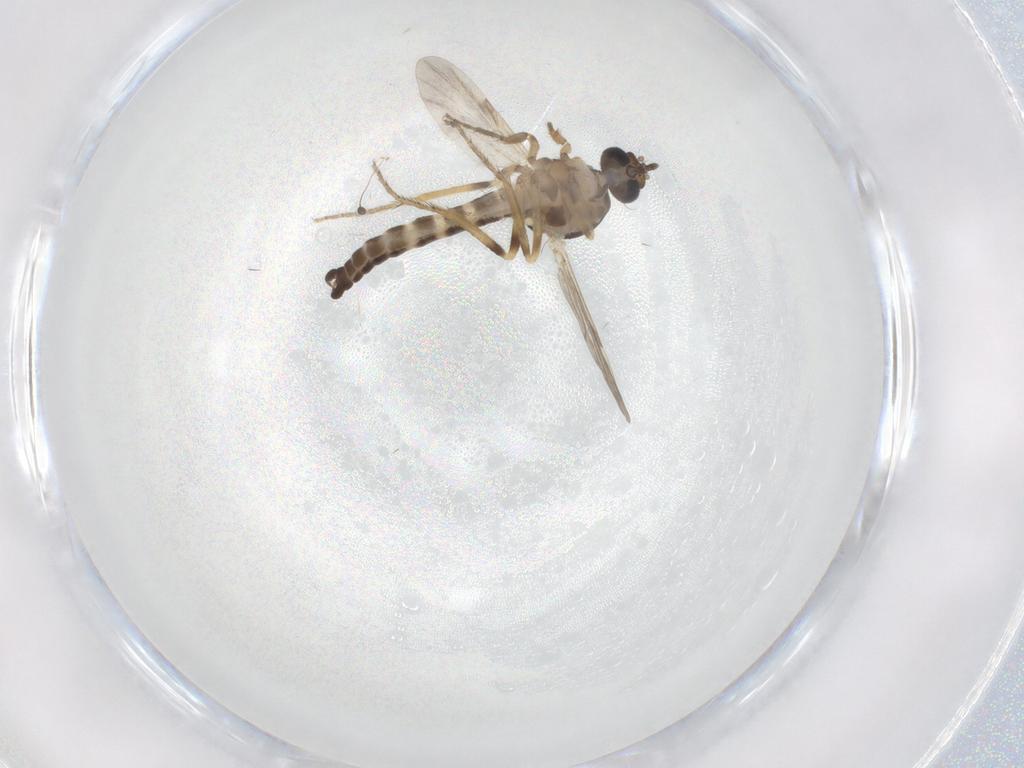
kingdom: Animalia
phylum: Arthropoda
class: Insecta
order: Diptera
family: Ceratopogonidae
